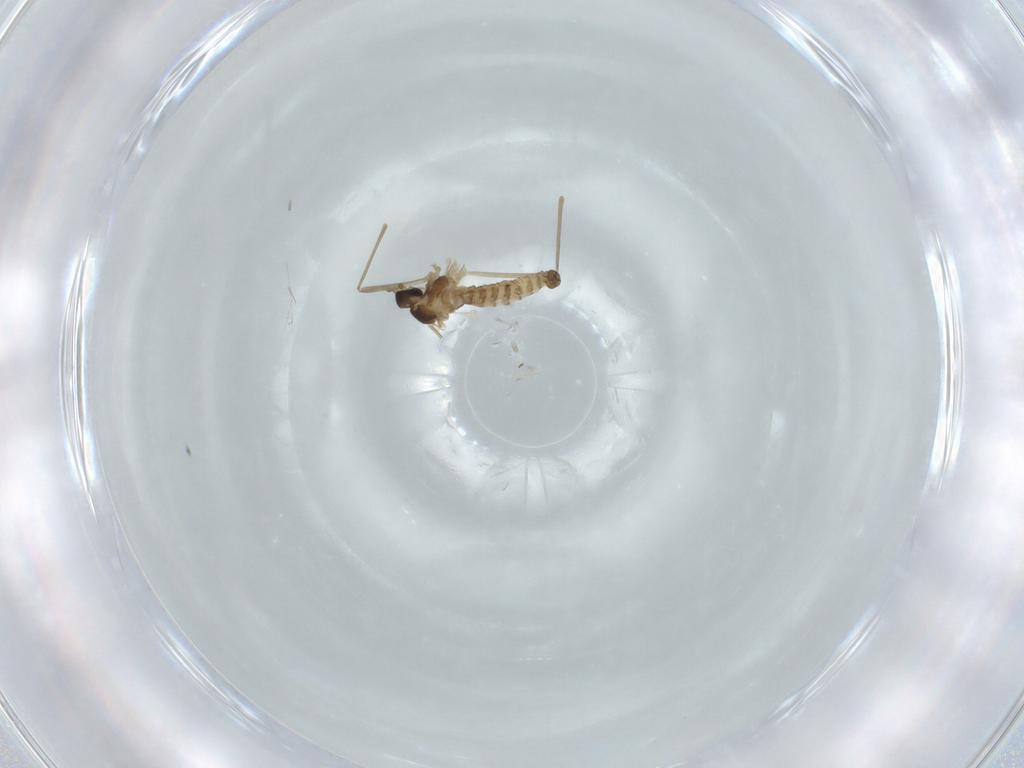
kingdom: Animalia
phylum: Arthropoda
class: Insecta
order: Diptera
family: Cecidomyiidae
